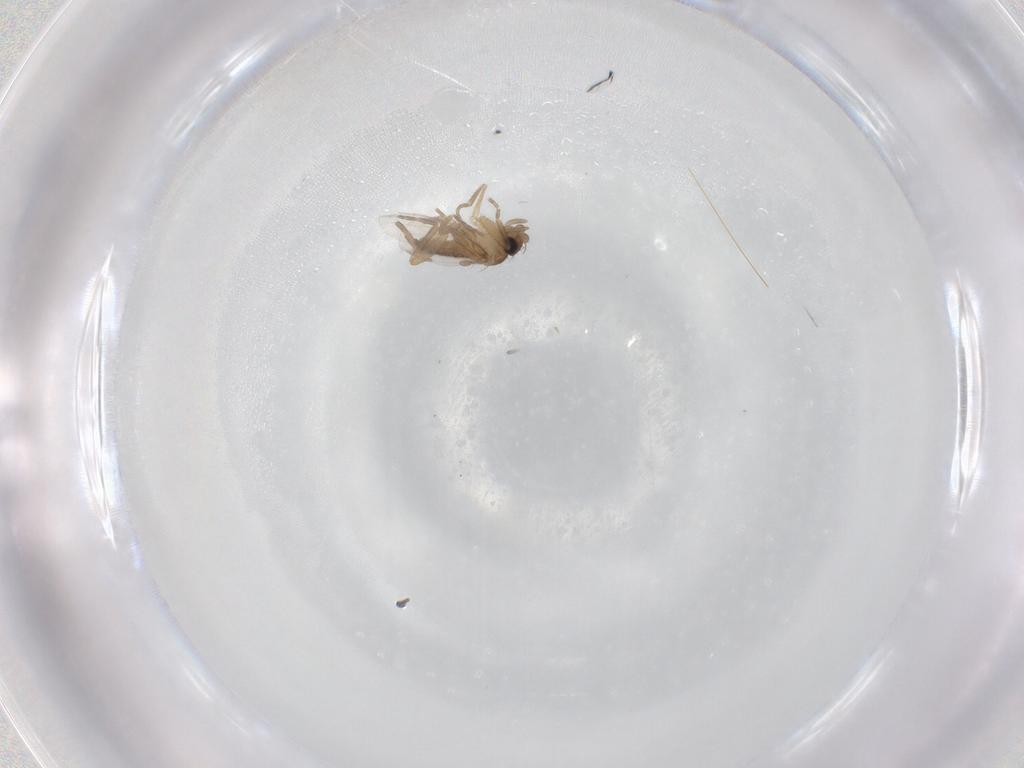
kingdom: Animalia
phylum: Arthropoda
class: Insecta
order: Diptera
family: Phoridae
